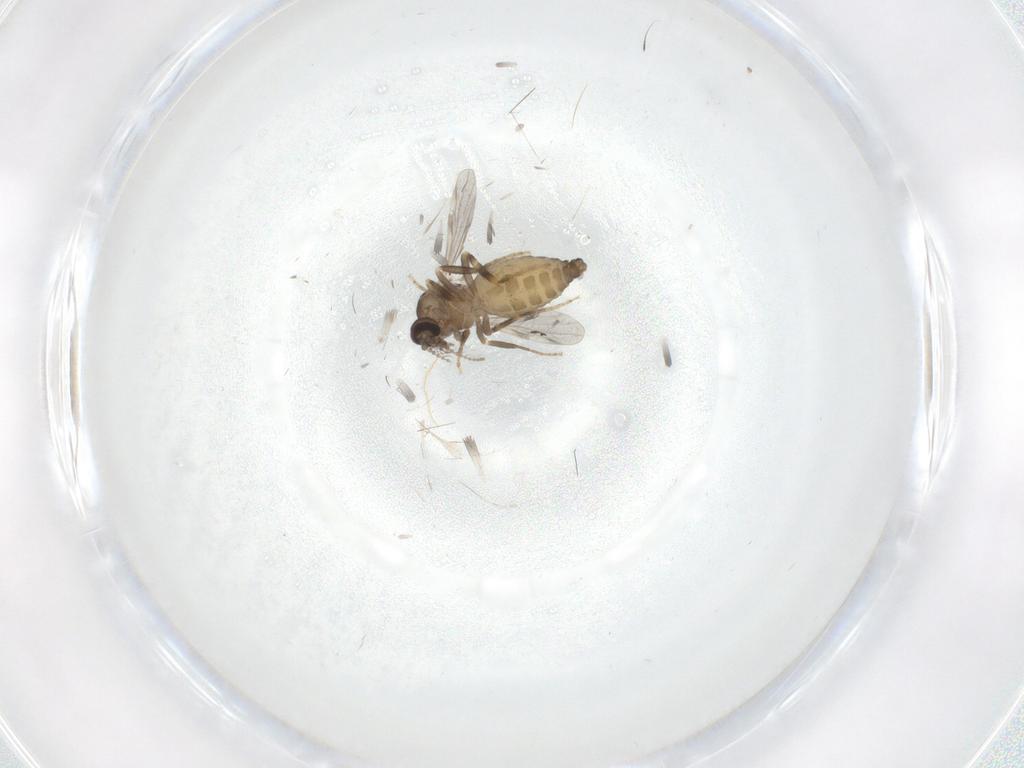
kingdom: Animalia
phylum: Arthropoda
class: Insecta
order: Diptera
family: Ceratopogonidae
